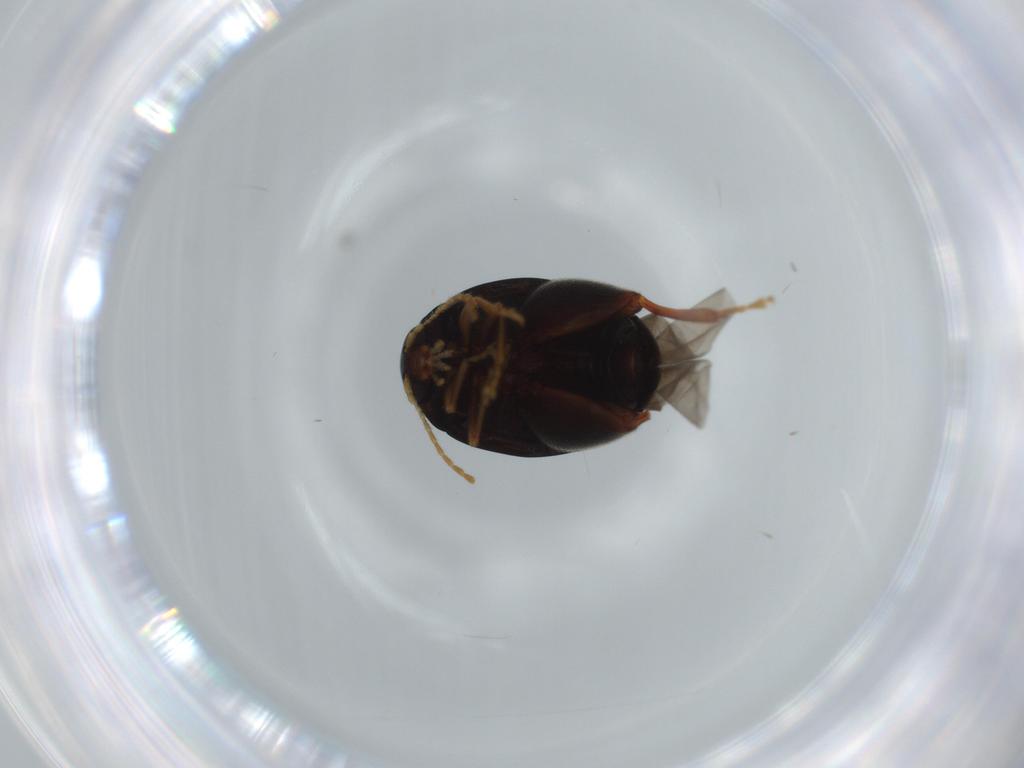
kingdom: Animalia
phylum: Arthropoda
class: Insecta
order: Coleoptera
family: Chrysomelidae
